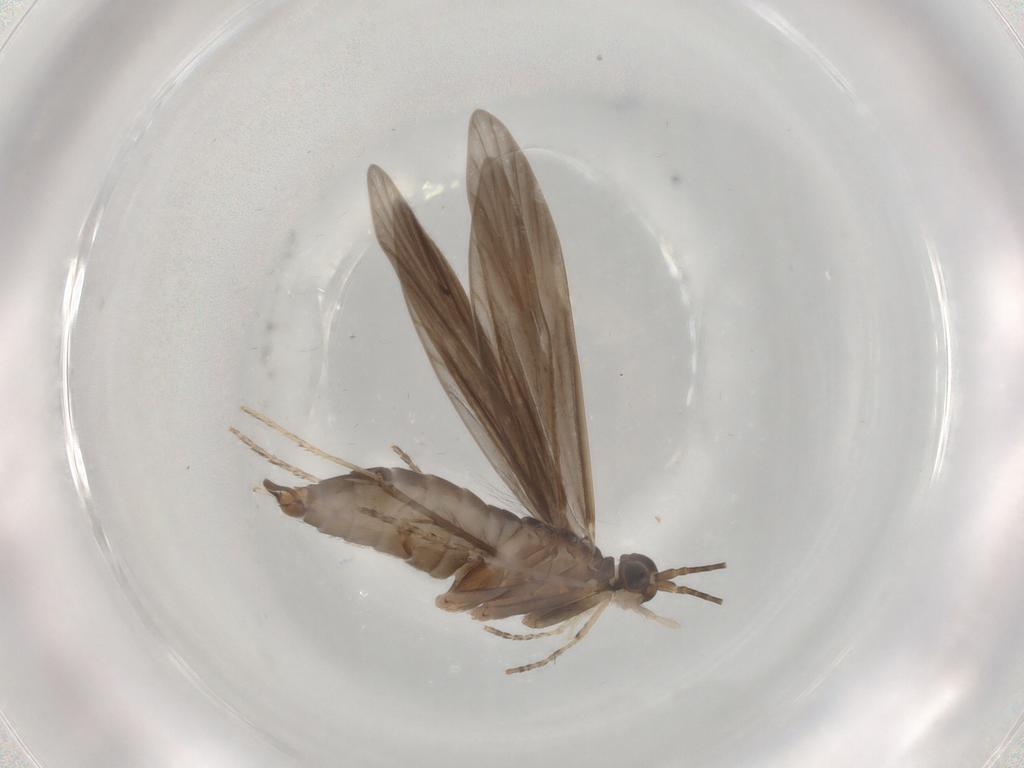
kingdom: Animalia
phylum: Arthropoda
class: Insecta
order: Trichoptera
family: Xiphocentronidae
